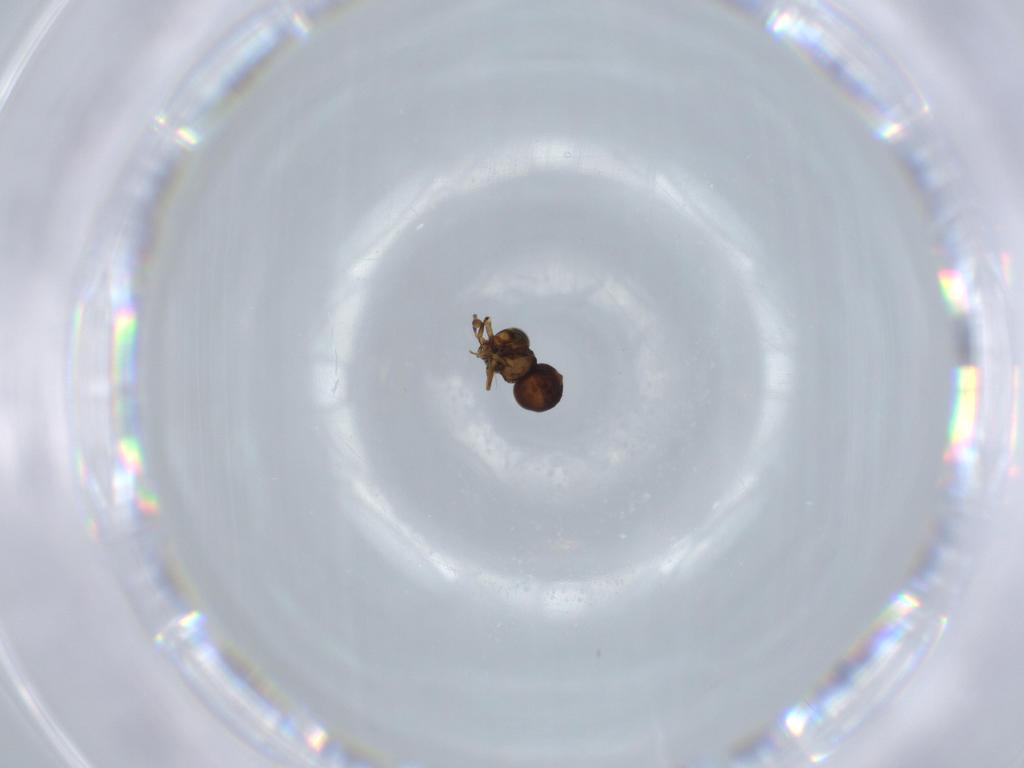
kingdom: Animalia
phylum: Arthropoda
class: Insecta
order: Hymenoptera
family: Scelionidae
